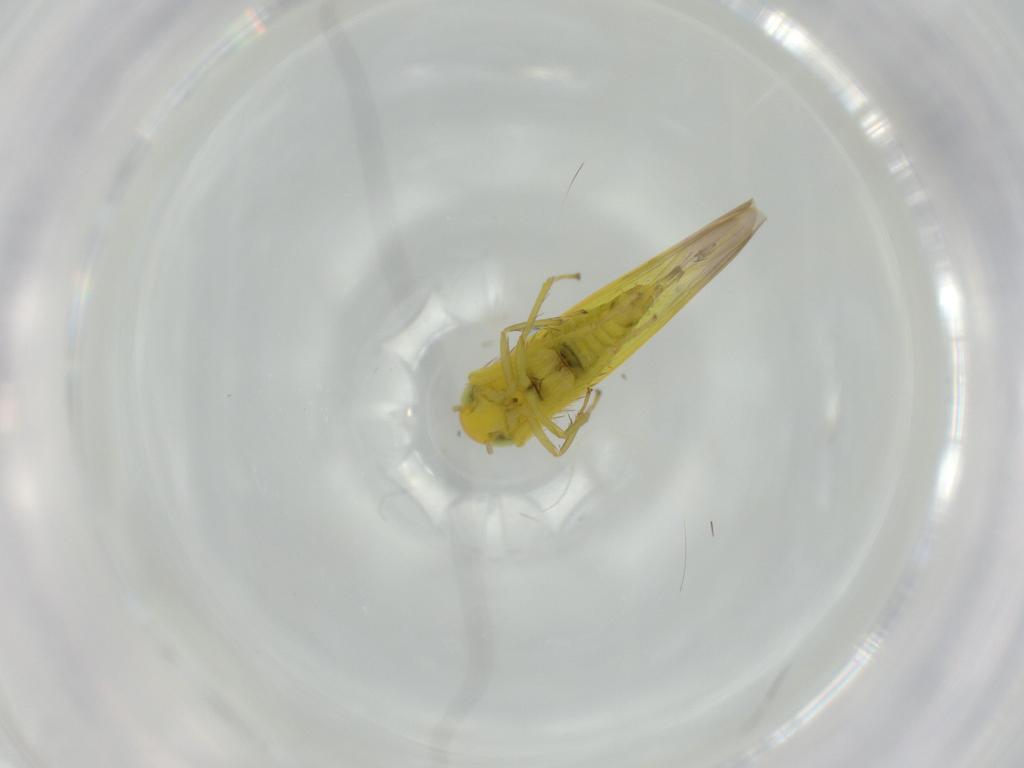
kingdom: Animalia
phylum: Arthropoda
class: Insecta
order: Hemiptera
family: Cicadellidae
